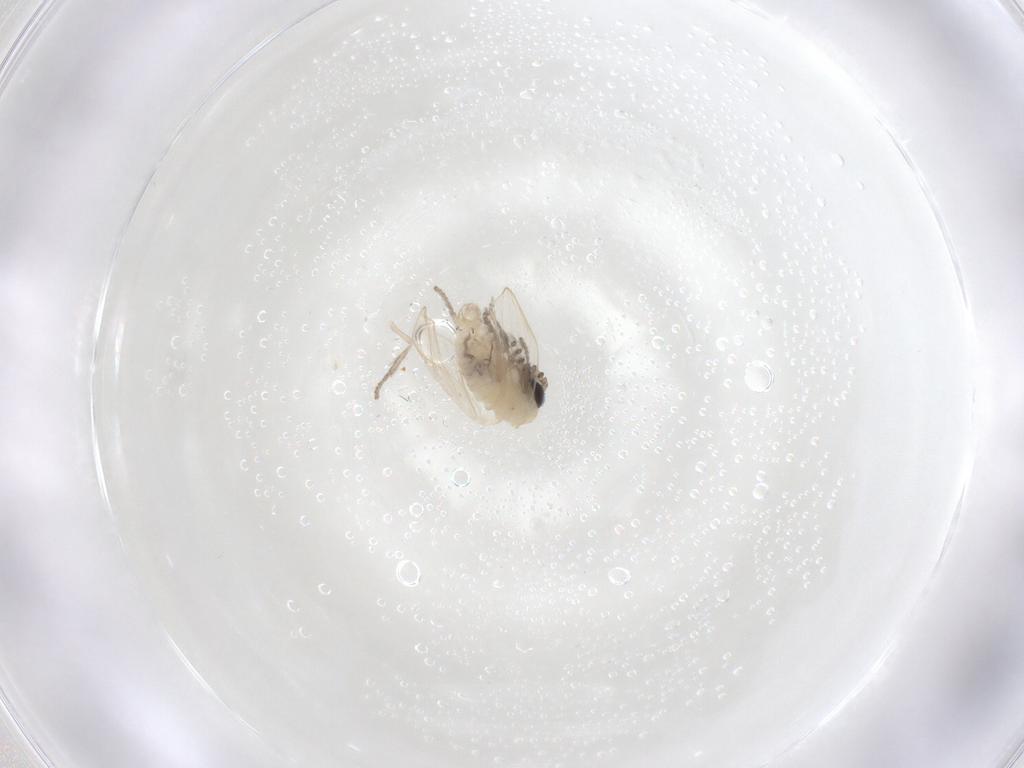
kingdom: Animalia
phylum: Arthropoda
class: Insecta
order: Diptera
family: Psychodidae
